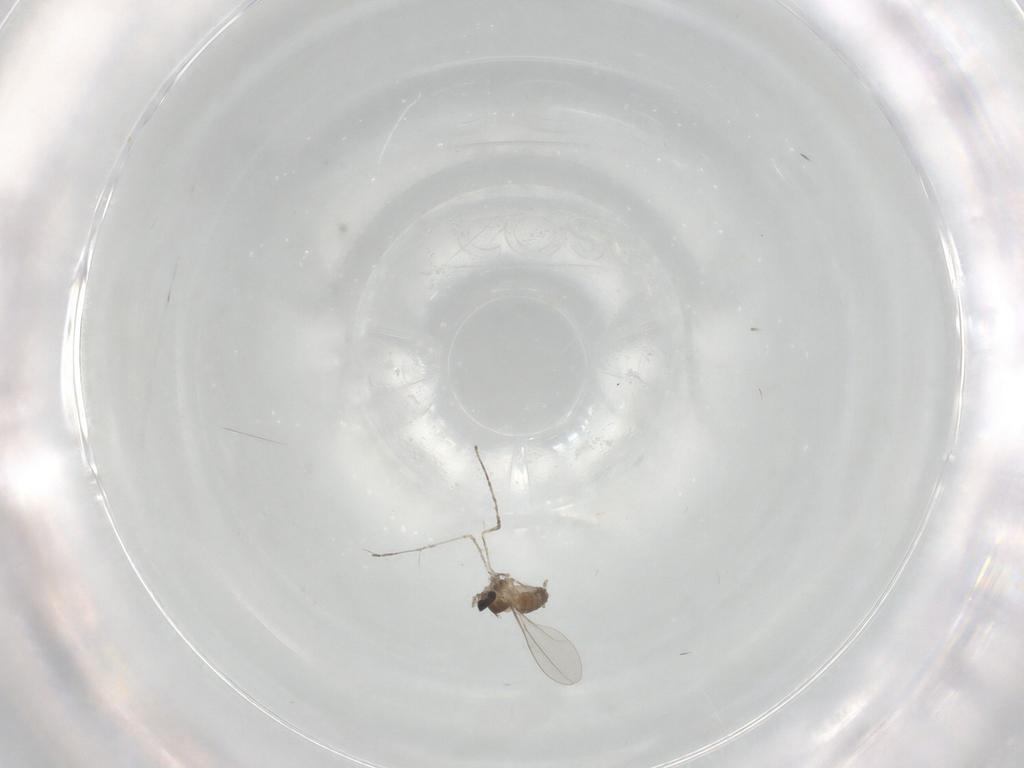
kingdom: Animalia
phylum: Arthropoda
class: Insecta
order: Diptera
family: Cecidomyiidae
